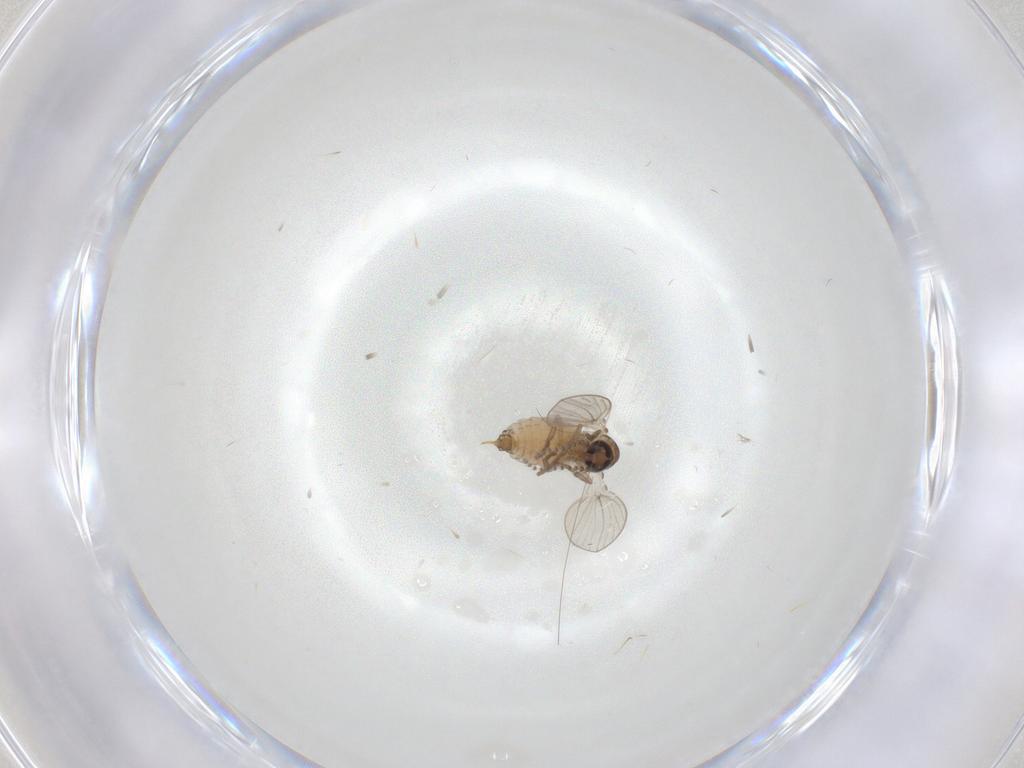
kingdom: Animalia
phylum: Arthropoda
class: Insecta
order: Diptera
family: Psychodidae
